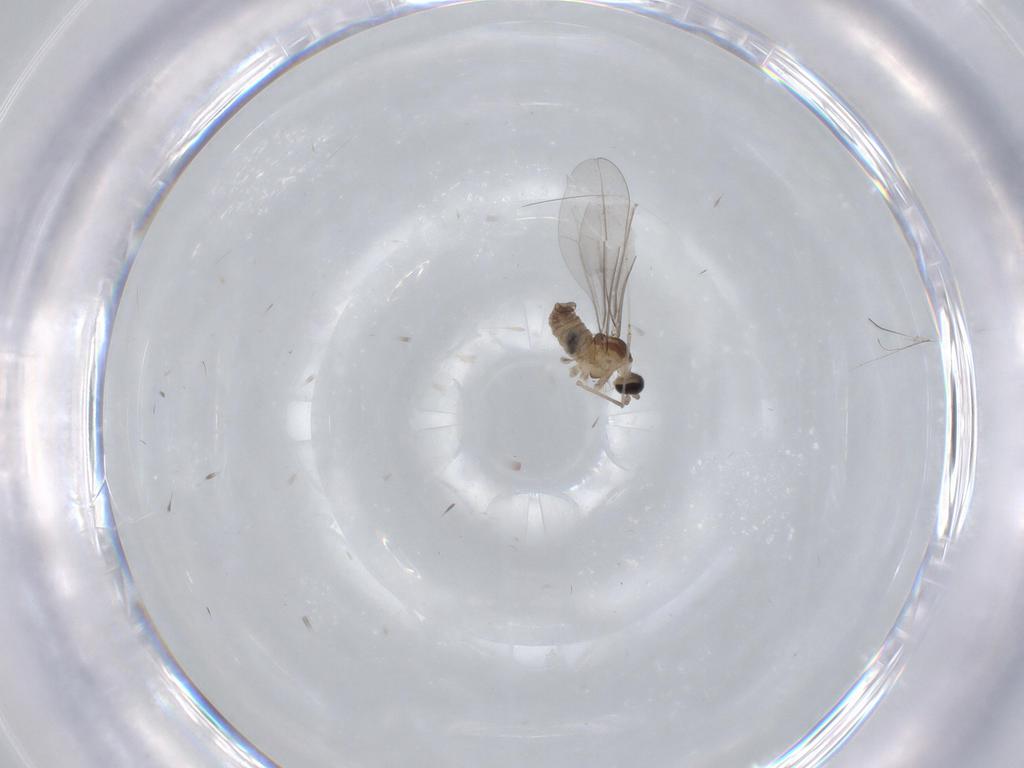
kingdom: Animalia
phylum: Arthropoda
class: Insecta
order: Diptera
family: Cecidomyiidae
